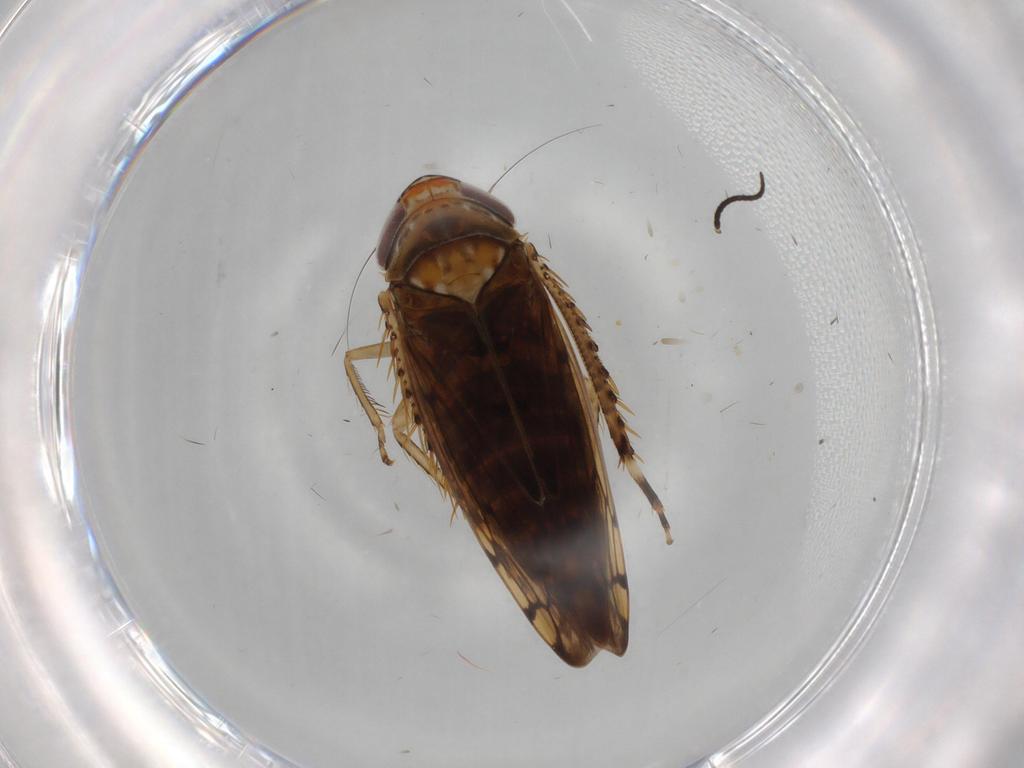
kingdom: Animalia
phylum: Arthropoda
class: Insecta
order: Hemiptera
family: Cicadellidae
